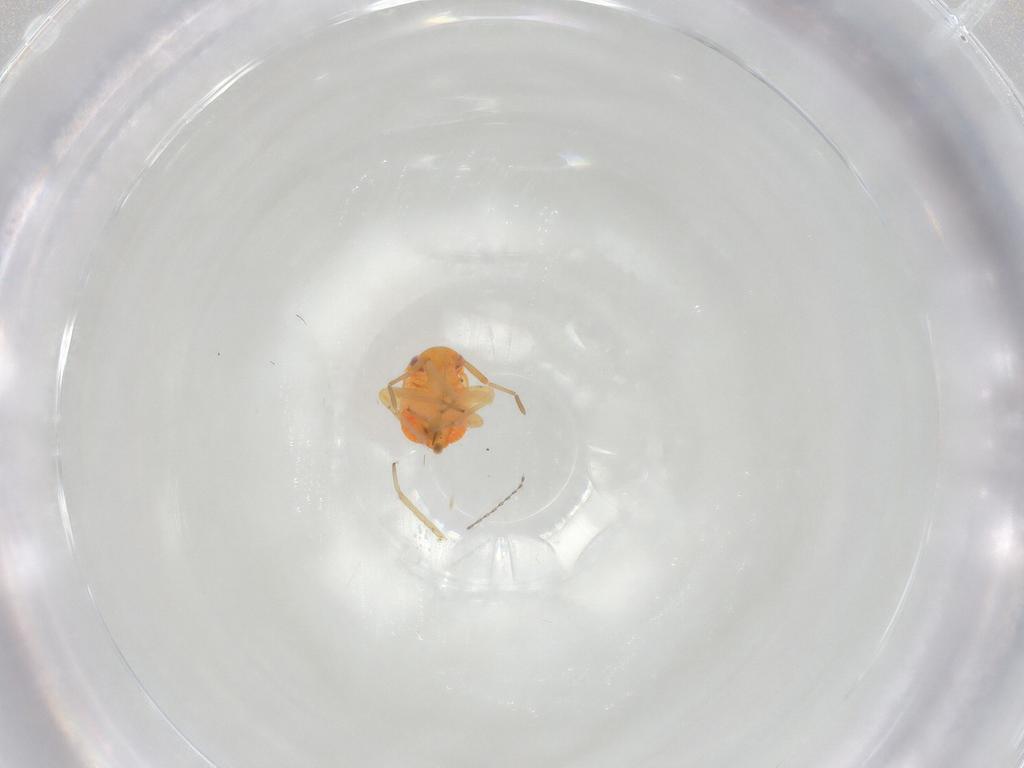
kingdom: Animalia
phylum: Arthropoda
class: Insecta
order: Hemiptera
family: Miridae
